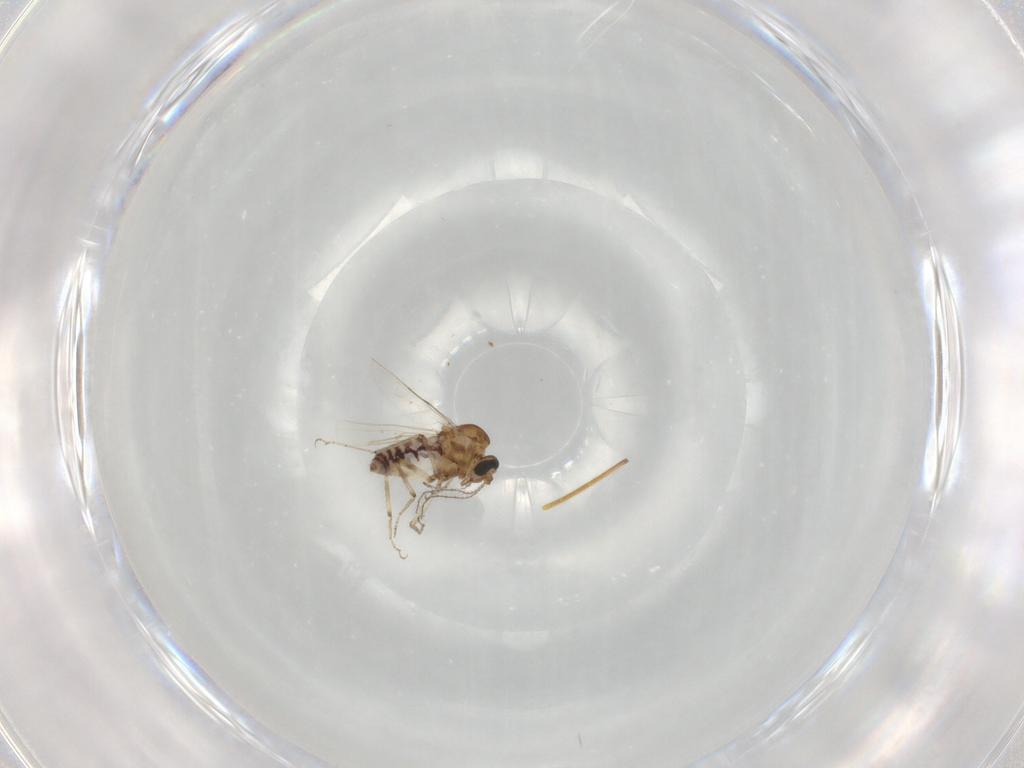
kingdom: Animalia
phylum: Arthropoda
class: Insecta
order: Diptera
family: Ceratopogonidae
